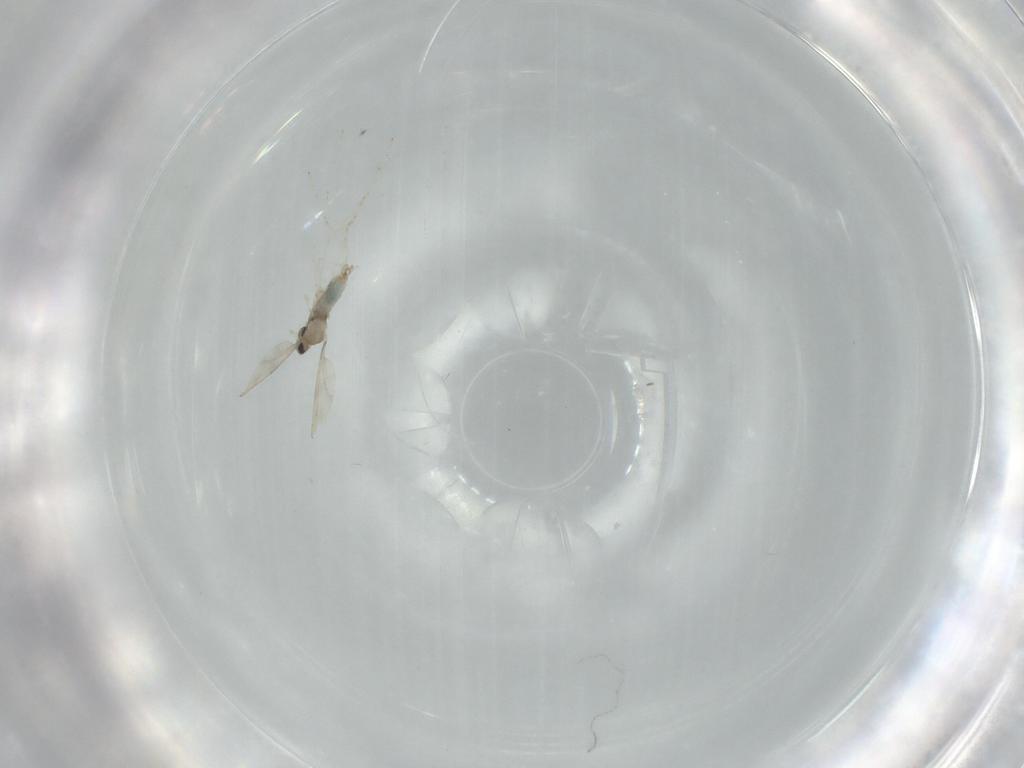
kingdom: Animalia
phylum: Arthropoda
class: Insecta
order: Diptera
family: Cecidomyiidae
